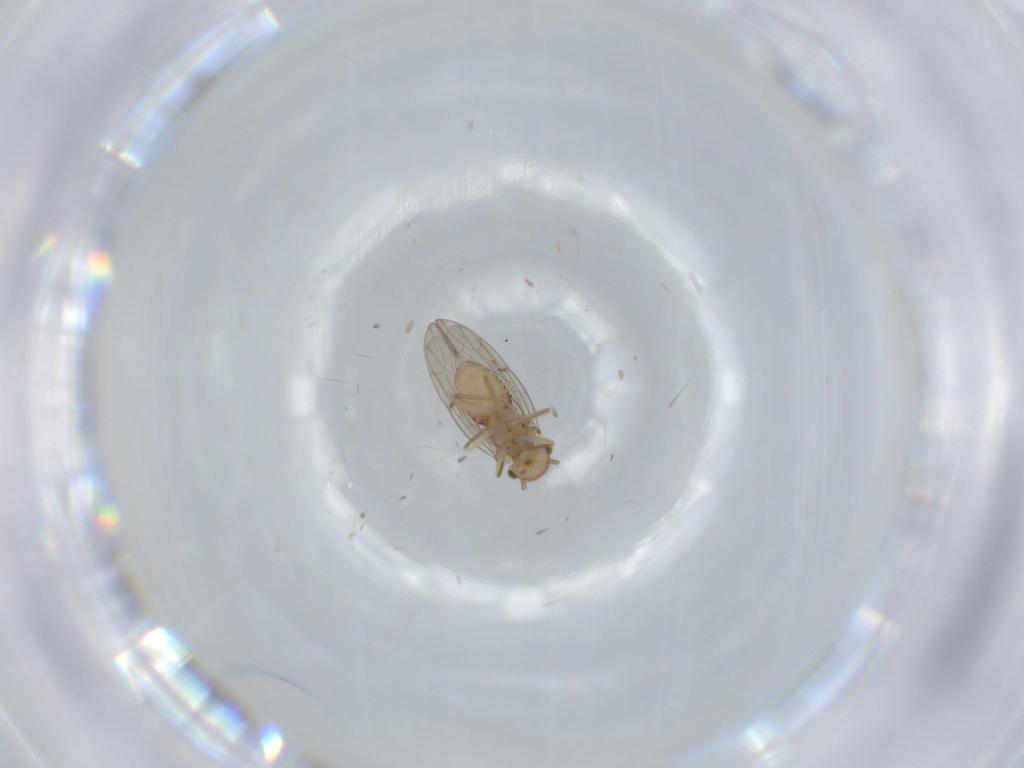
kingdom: Animalia
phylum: Arthropoda
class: Insecta
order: Psocodea
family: Ectopsocidae
